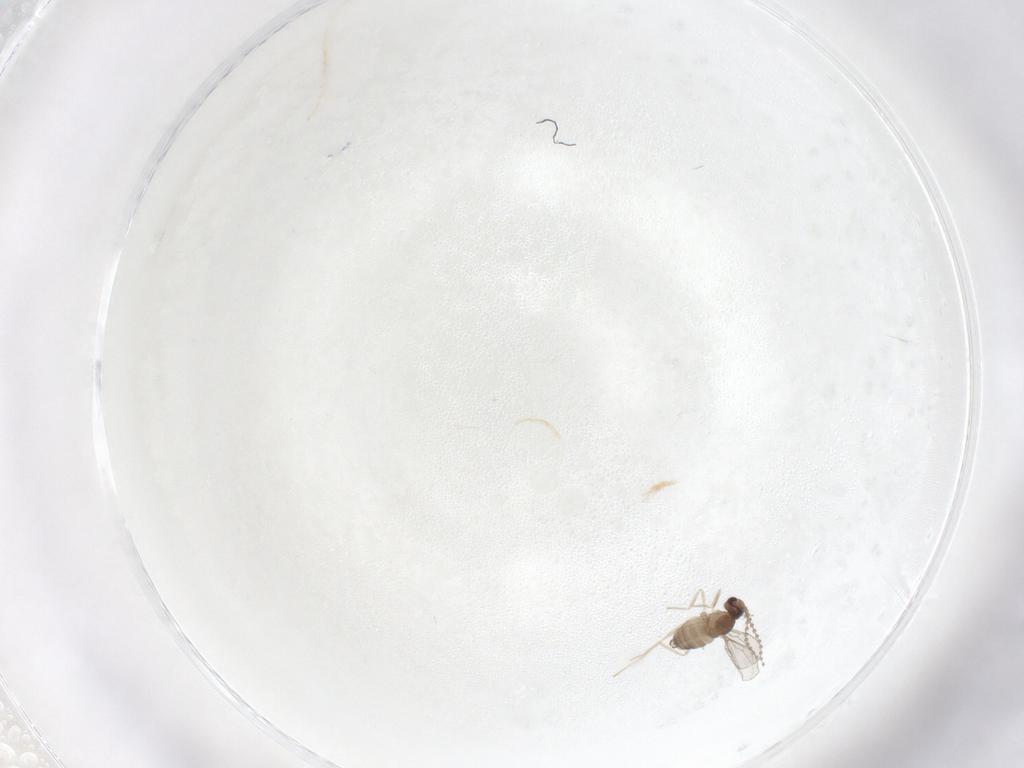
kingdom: Animalia
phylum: Arthropoda
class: Insecta
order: Diptera
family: Cecidomyiidae
